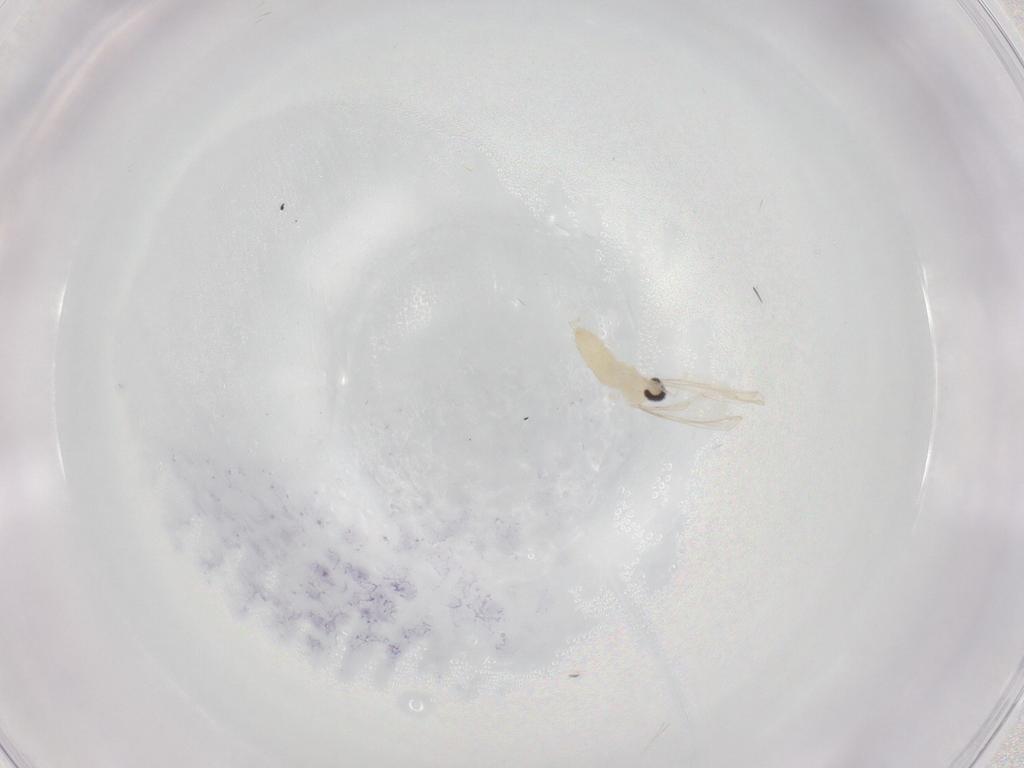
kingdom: Animalia
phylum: Arthropoda
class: Insecta
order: Diptera
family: Cecidomyiidae
